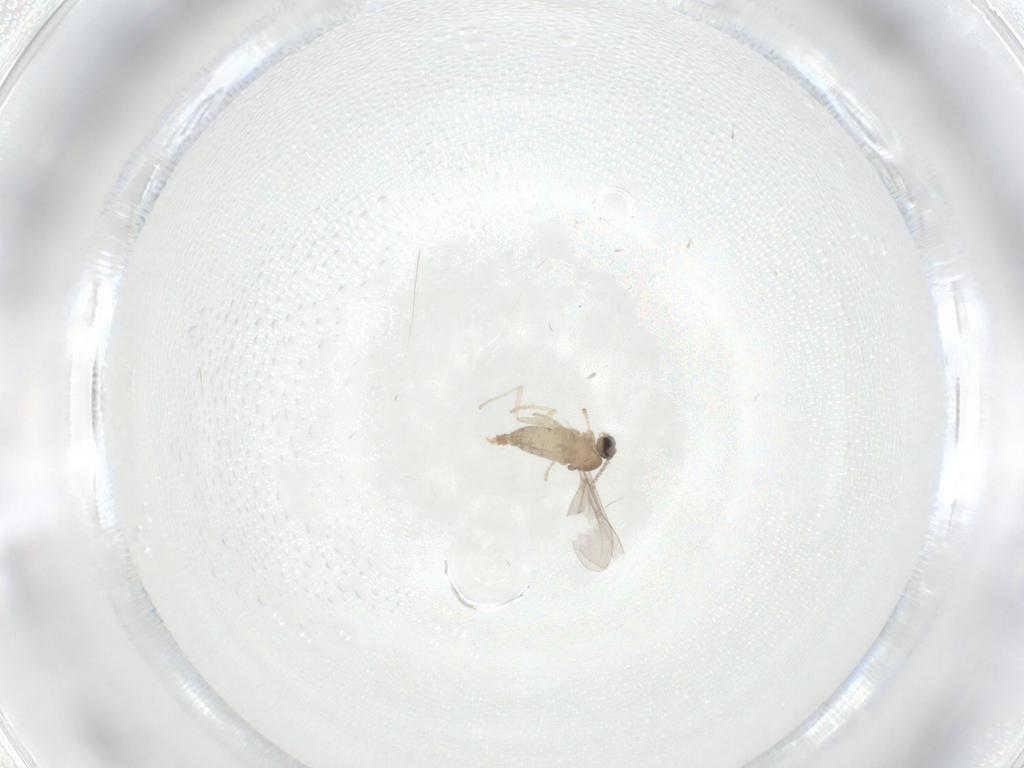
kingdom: Animalia
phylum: Arthropoda
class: Insecta
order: Diptera
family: Cecidomyiidae
